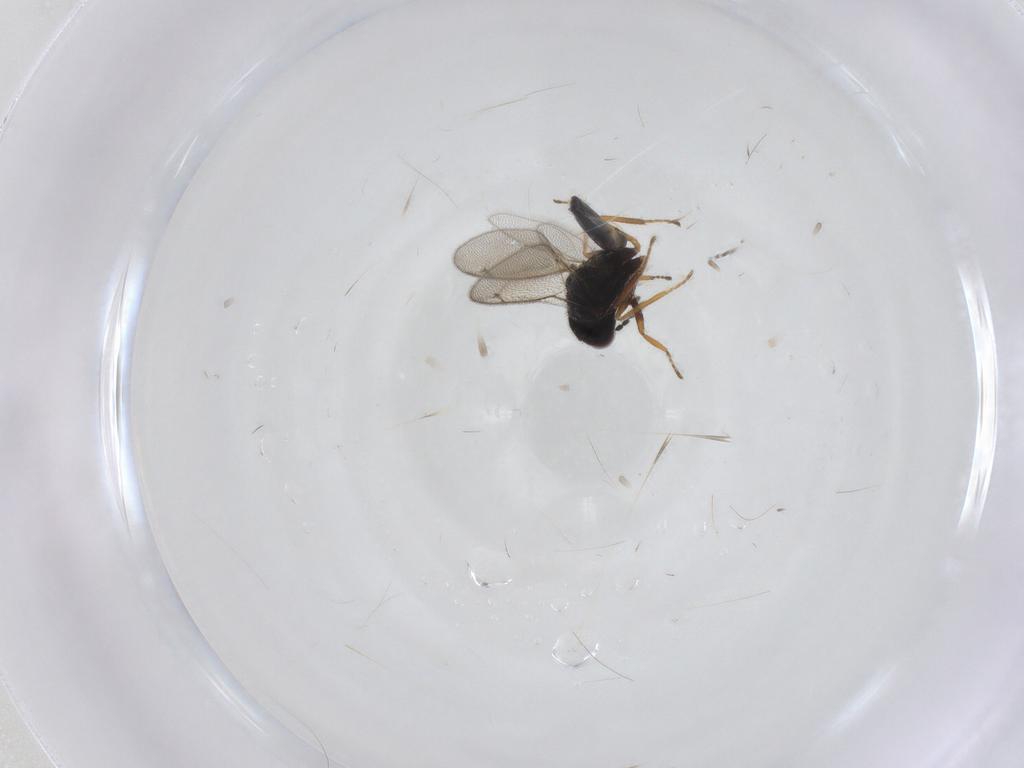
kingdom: Animalia
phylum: Arthropoda
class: Insecta
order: Hymenoptera
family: Eulophidae
